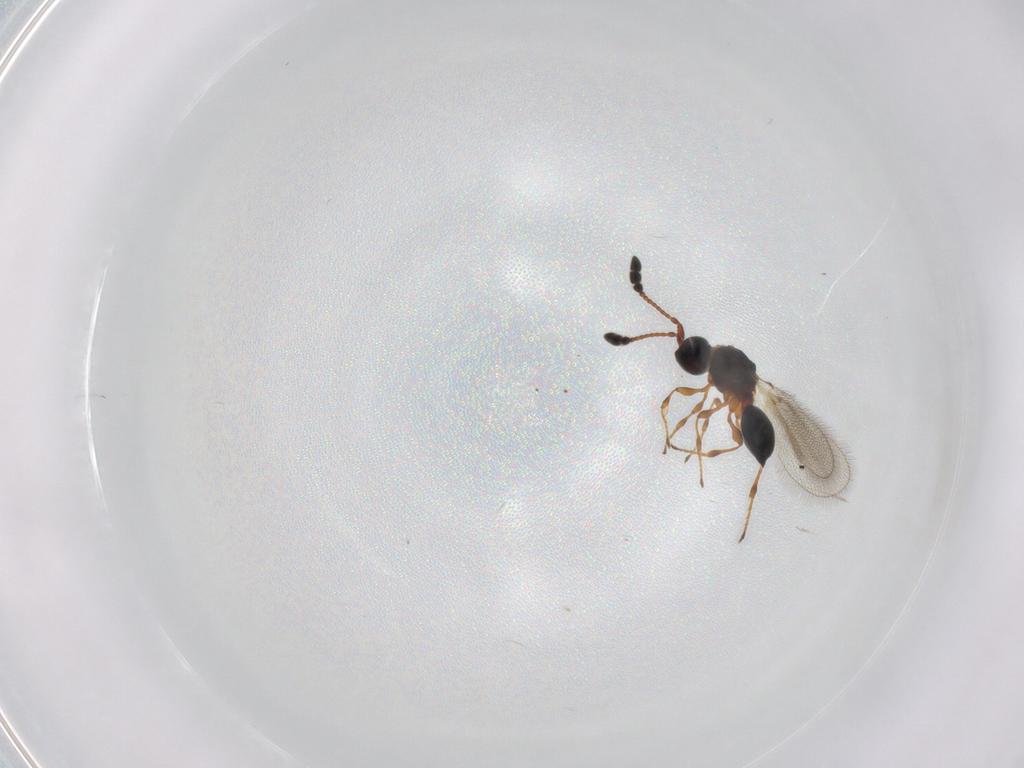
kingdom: Animalia
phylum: Arthropoda
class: Insecta
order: Hymenoptera
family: Diapriidae
